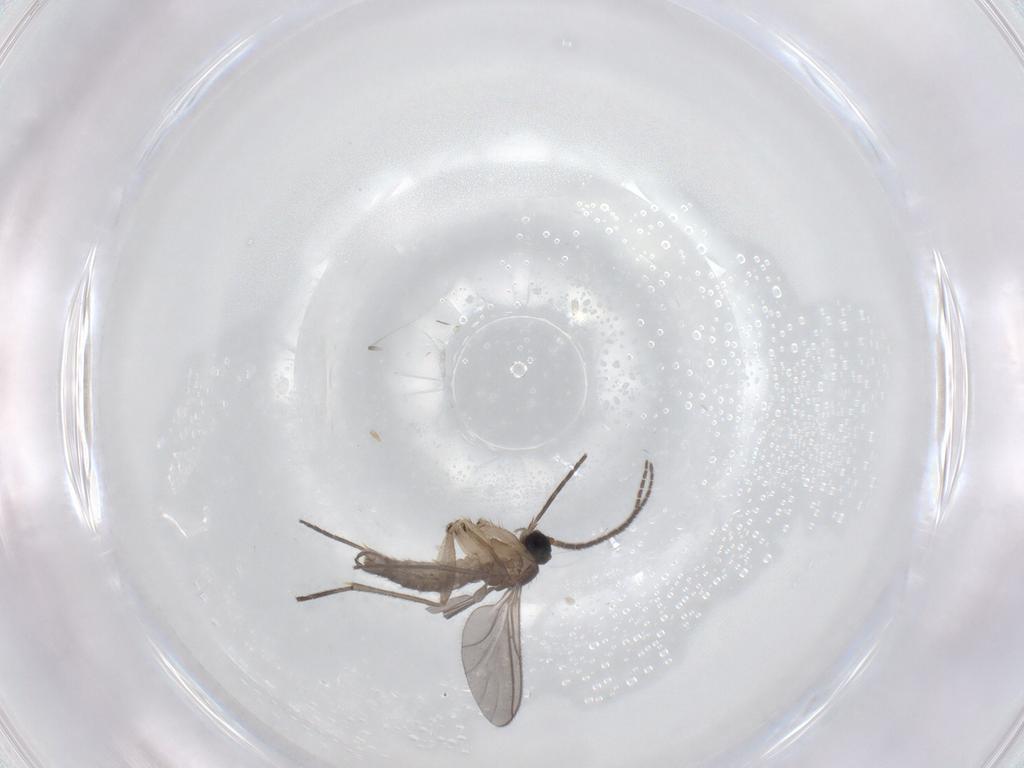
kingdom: Animalia
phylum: Arthropoda
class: Insecta
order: Diptera
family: Sciaridae
